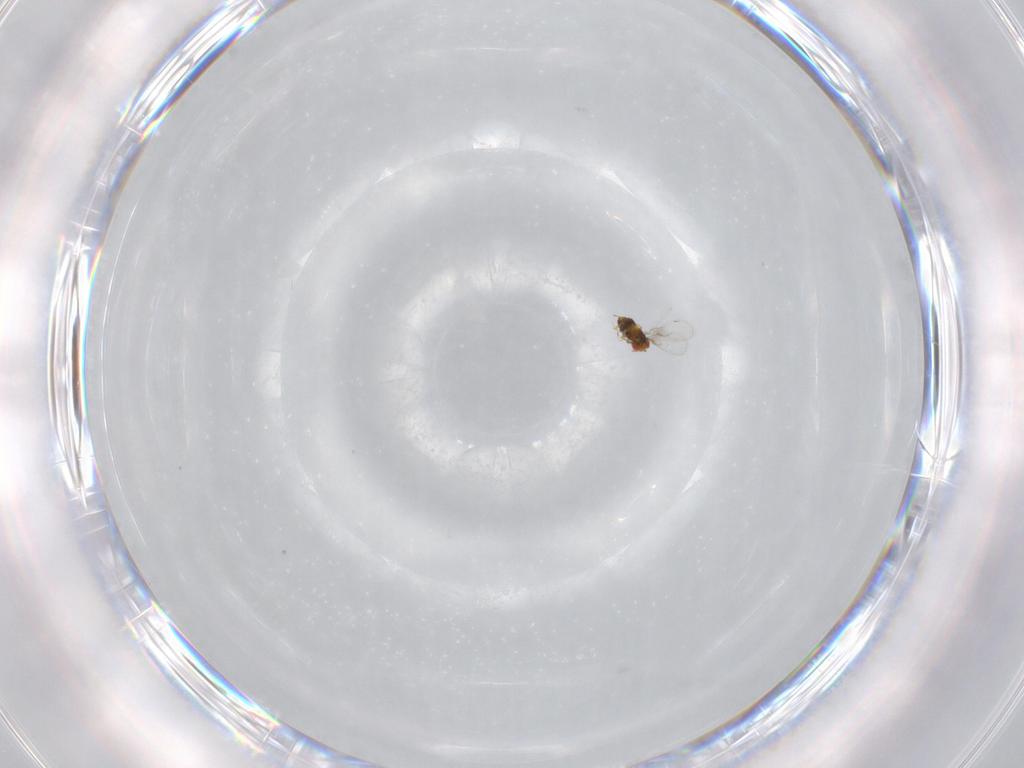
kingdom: Animalia
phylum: Arthropoda
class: Insecta
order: Hymenoptera
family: Trichogrammatidae
